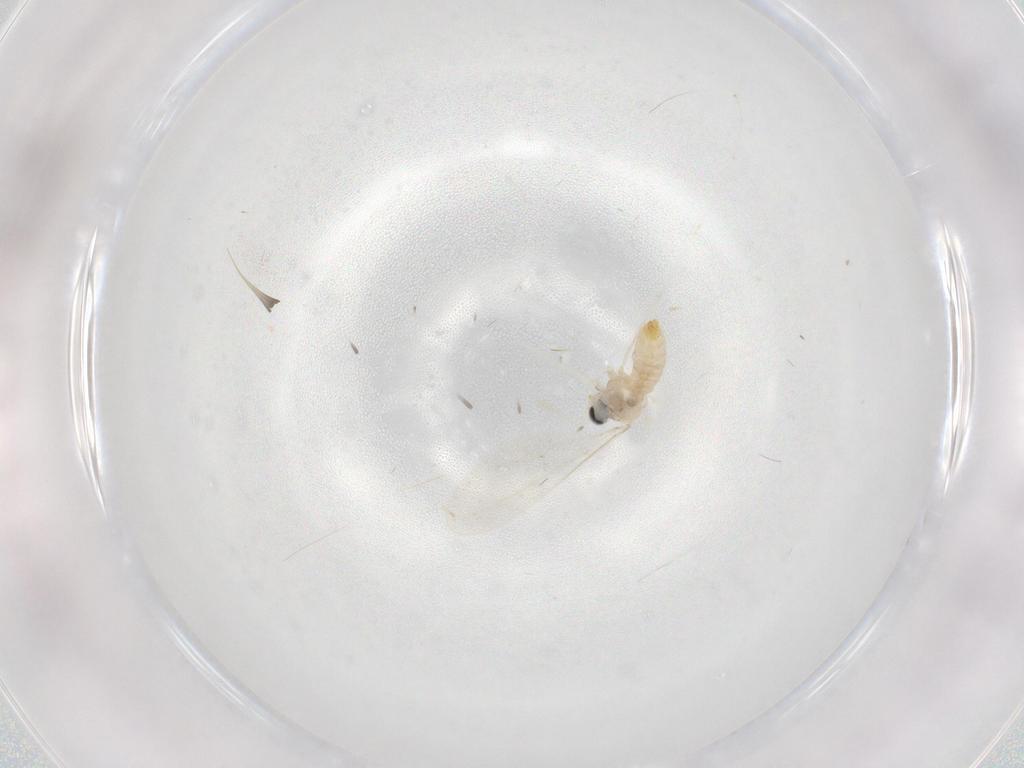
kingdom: Animalia
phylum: Arthropoda
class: Insecta
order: Diptera
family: Cecidomyiidae
